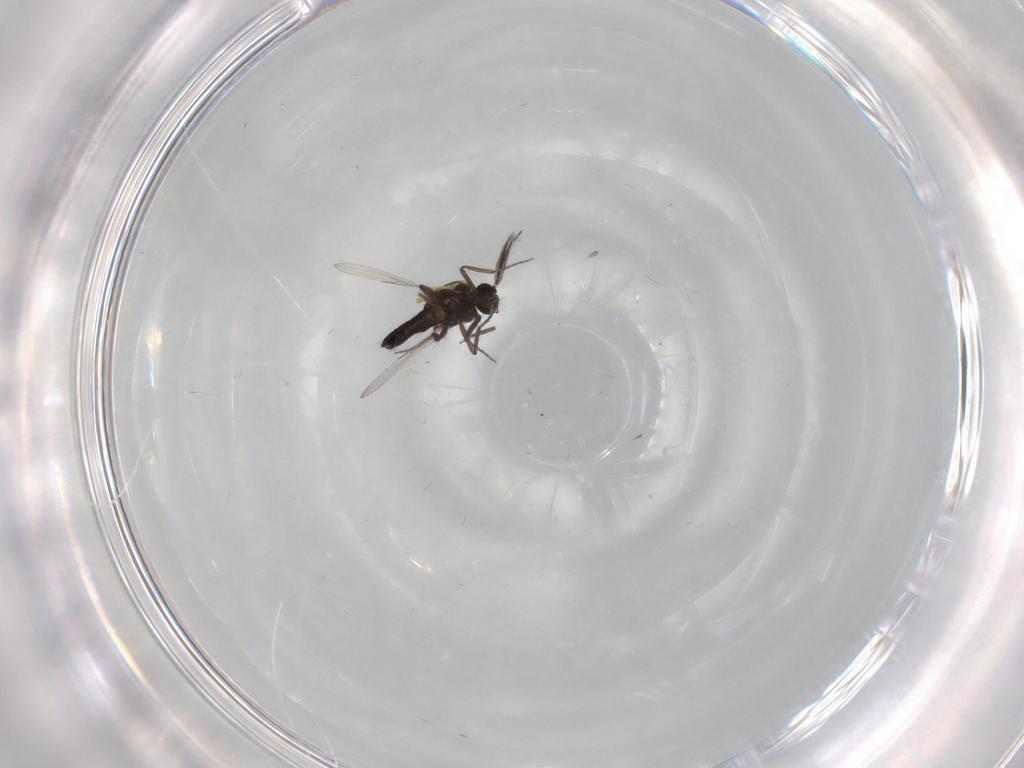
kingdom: Animalia
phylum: Arthropoda
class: Insecta
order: Diptera
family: Ceratopogonidae
